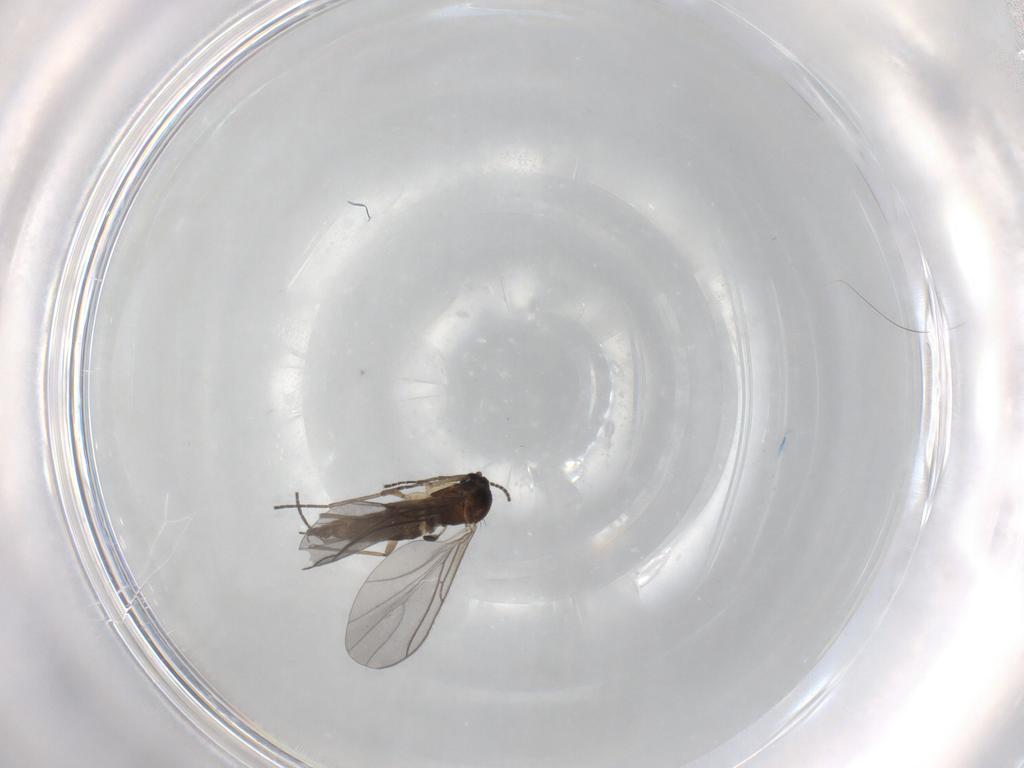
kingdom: Animalia
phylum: Arthropoda
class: Insecta
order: Diptera
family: Sciaridae
